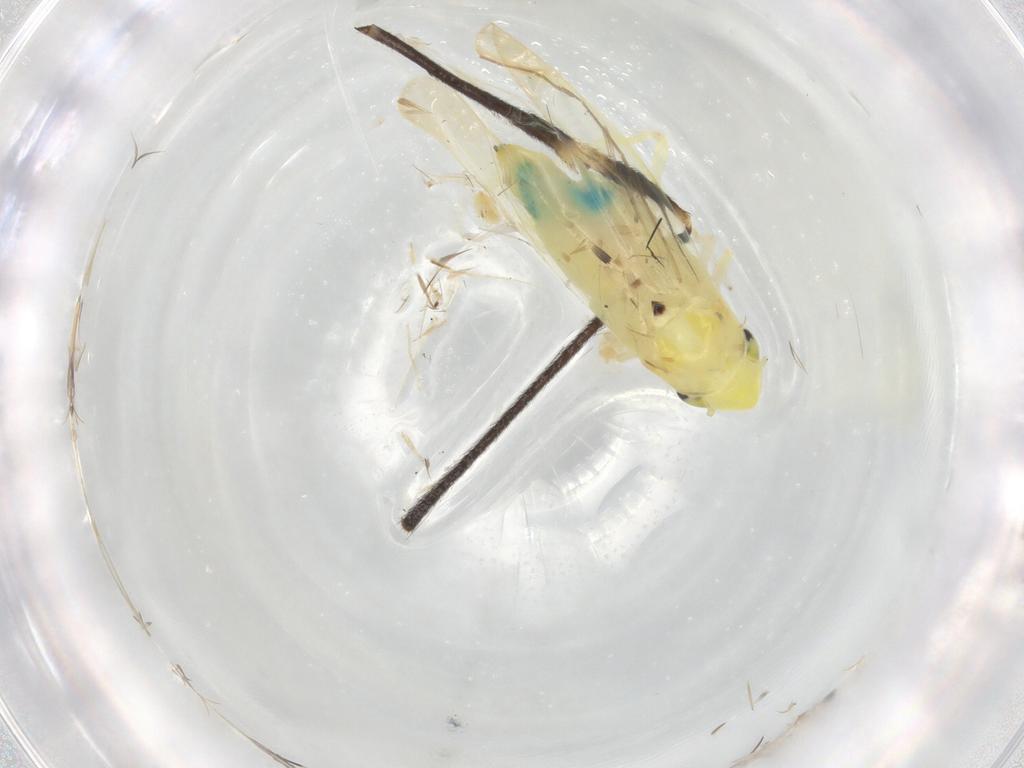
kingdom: Animalia
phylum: Arthropoda
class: Insecta
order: Hemiptera
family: Cicadellidae
